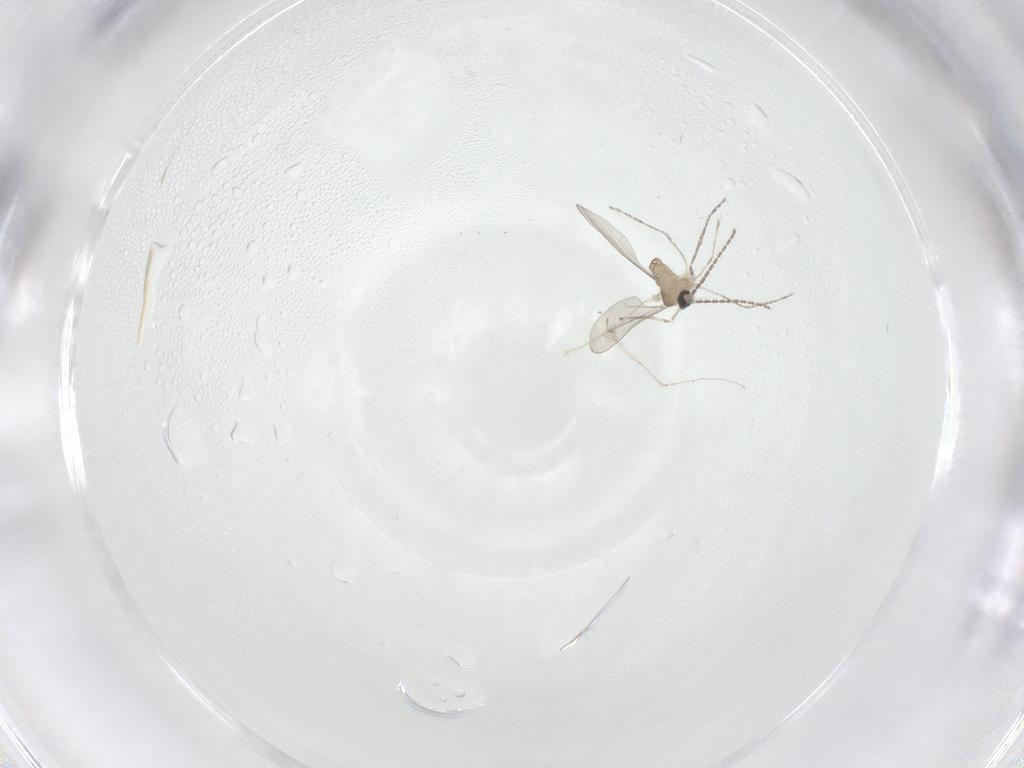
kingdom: Animalia
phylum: Arthropoda
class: Insecta
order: Diptera
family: Cecidomyiidae
